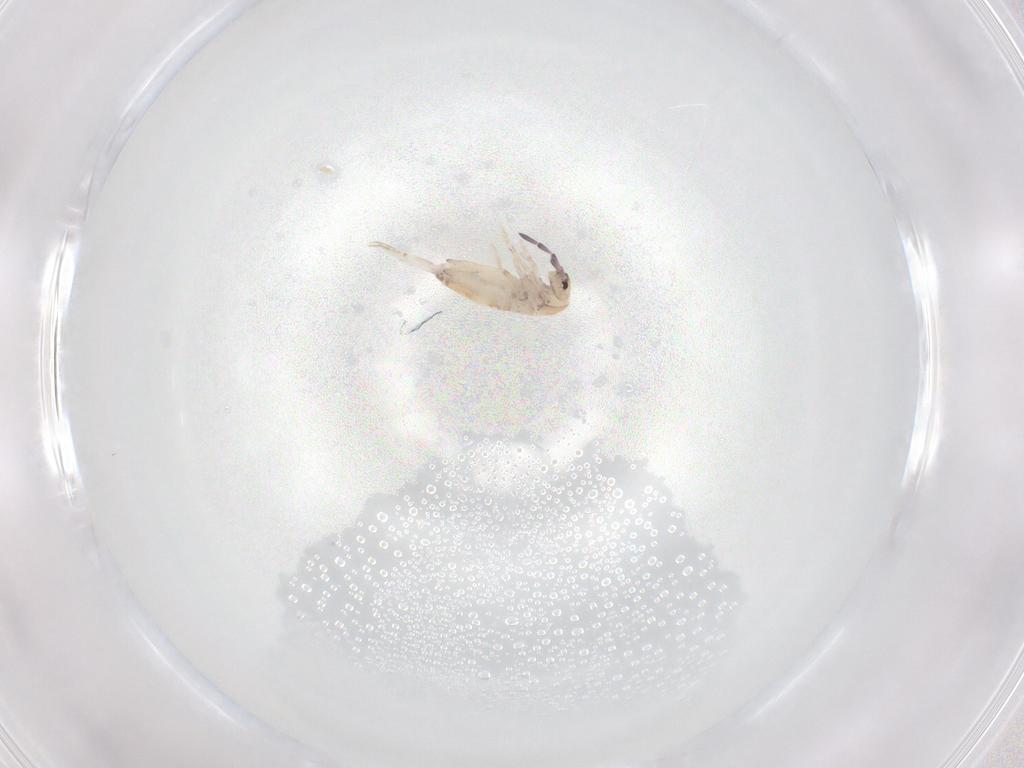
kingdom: Animalia
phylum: Arthropoda
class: Collembola
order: Entomobryomorpha
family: Entomobryidae
